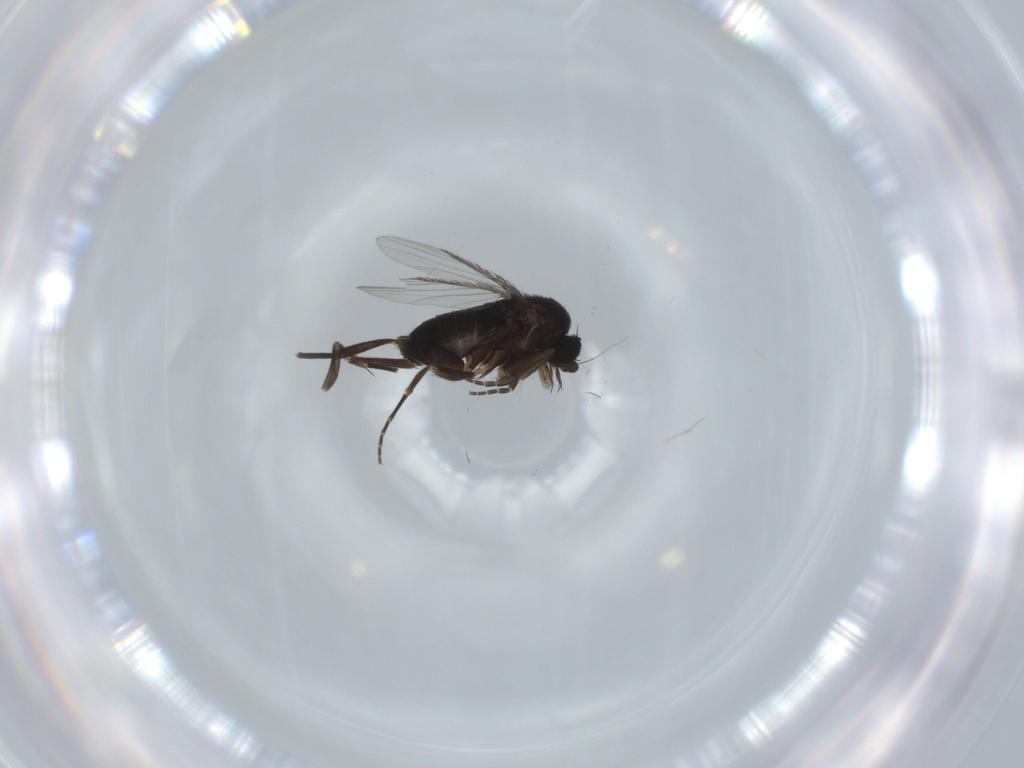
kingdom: Animalia
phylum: Arthropoda
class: Insecta
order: Diptera
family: Phoridae
